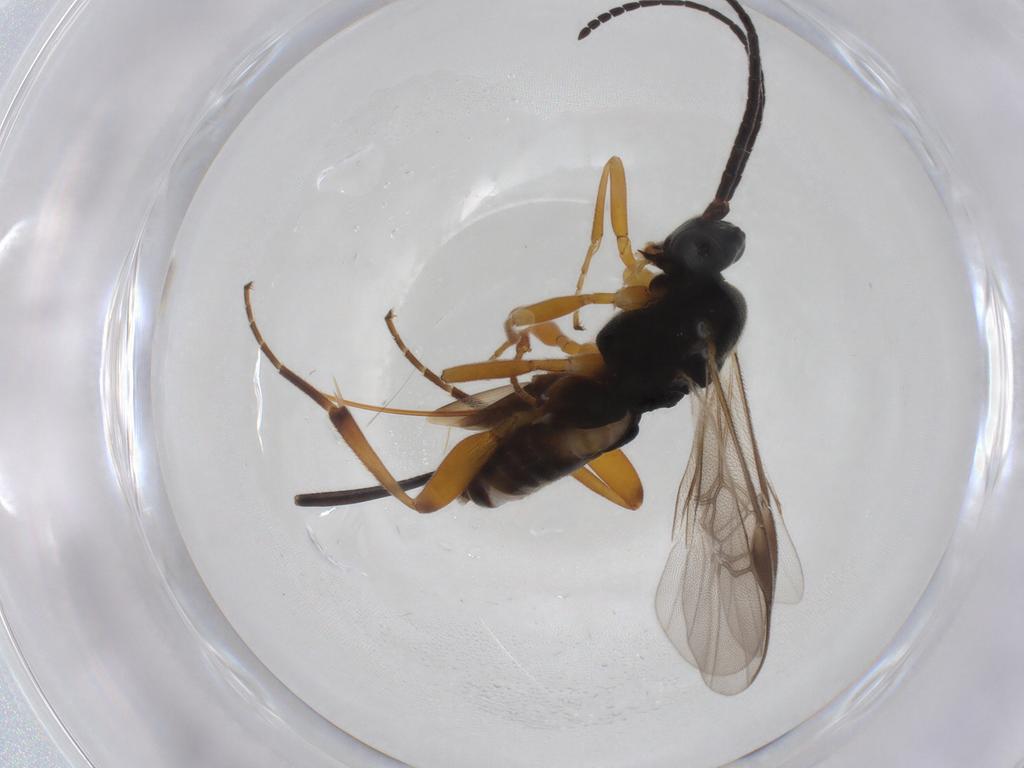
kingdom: Animalia
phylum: Arthropoda
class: Insecta
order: Hymenoptera
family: Braconidae
